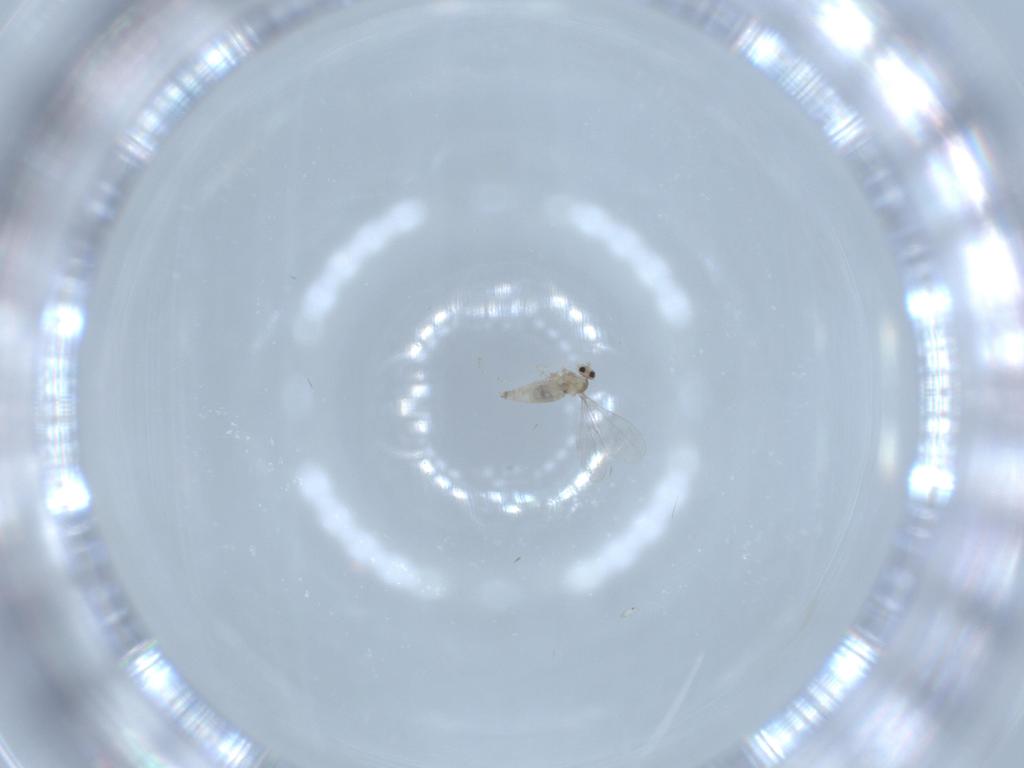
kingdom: Animalia
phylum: Arthropoda
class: Insecta
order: Diptera
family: Cecidomyiidae
